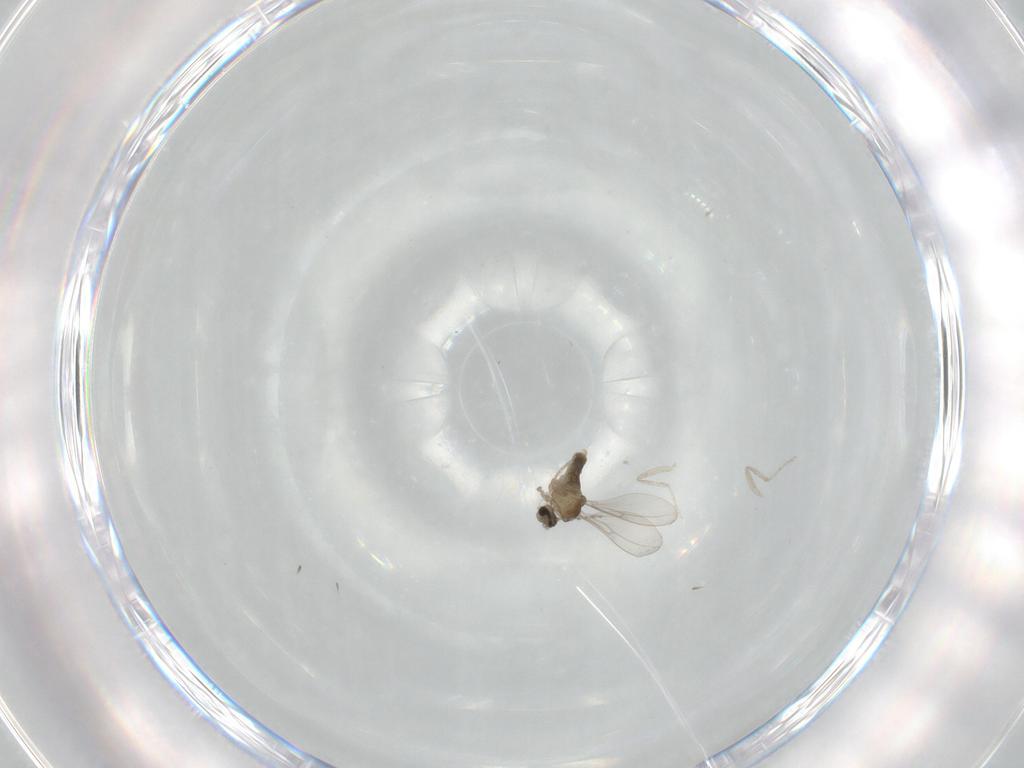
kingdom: Animalia
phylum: Arthropoda
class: Insecta
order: Diptera
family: Cecidomyiidae
